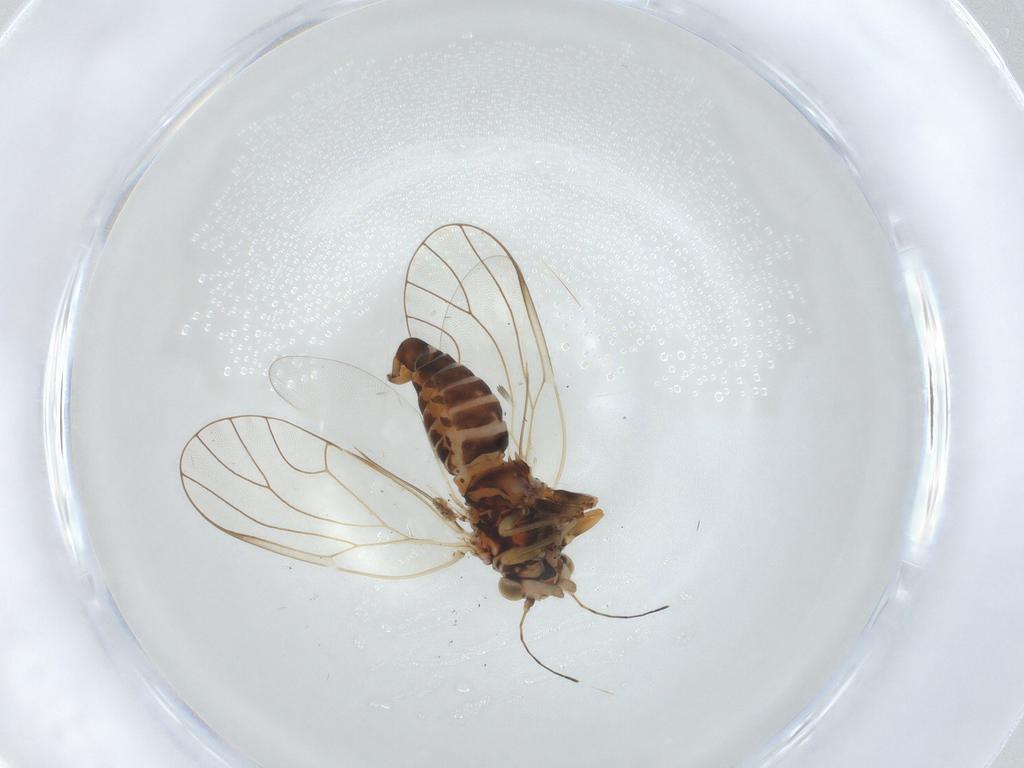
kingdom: Animalia
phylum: Arthropoda
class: Insecta
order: Hemiptera
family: Psyllidae
